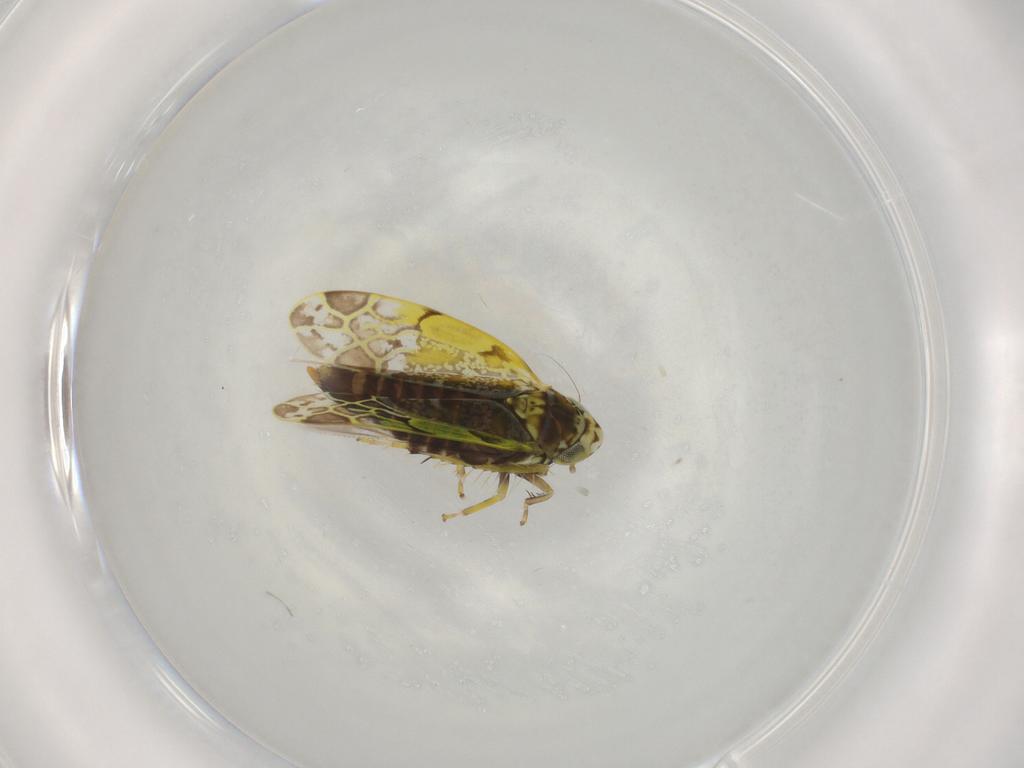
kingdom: Animalia
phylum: Arthropoda
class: Insecta
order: Hemiptera
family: Cicadellidae
